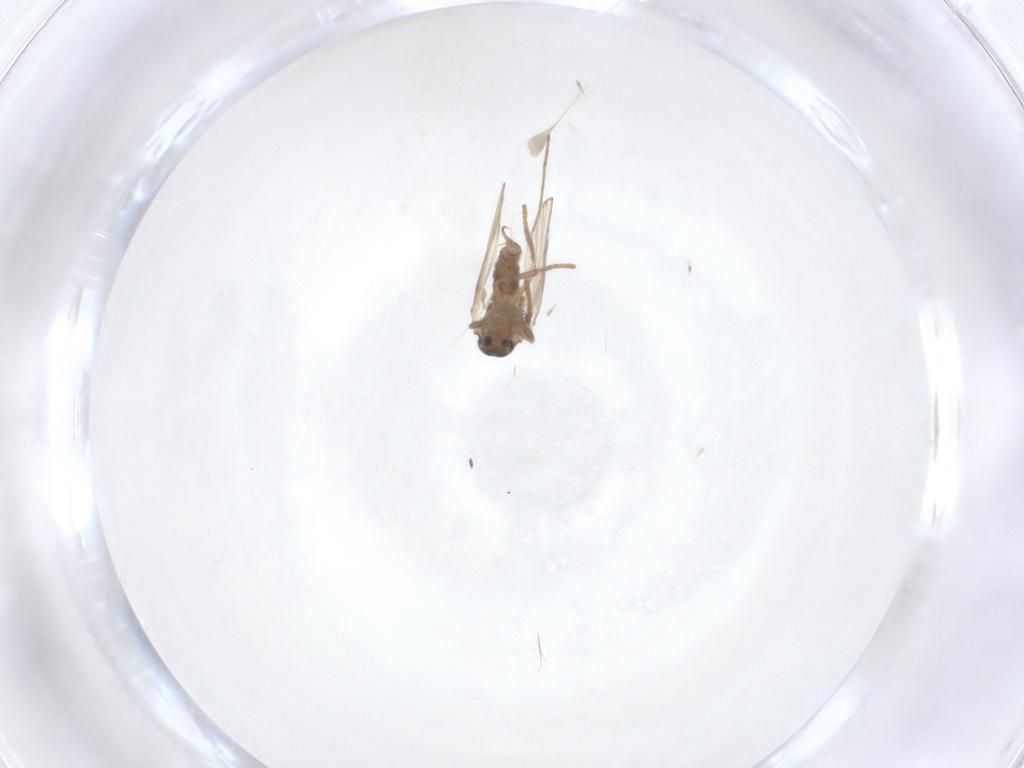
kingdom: Animalia
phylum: Arthropoda
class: Insecta
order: Diptera
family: Psychodidae
